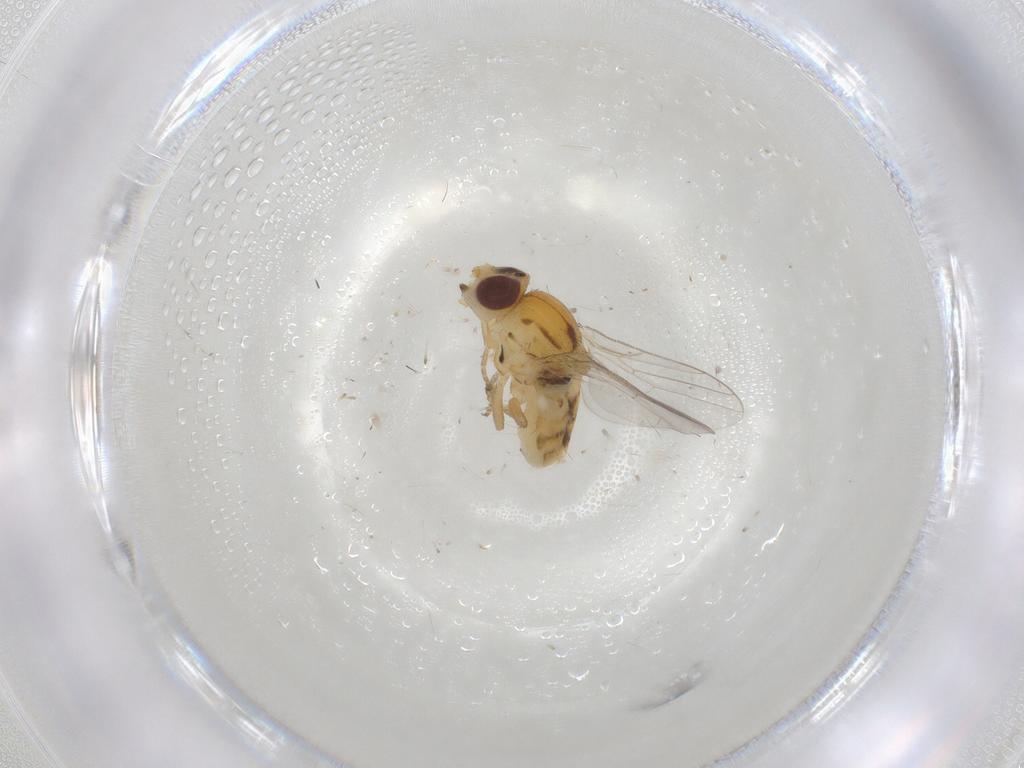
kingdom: Animalia
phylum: Arthropoda
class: Insecta
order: Diptera
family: Chloropidae
